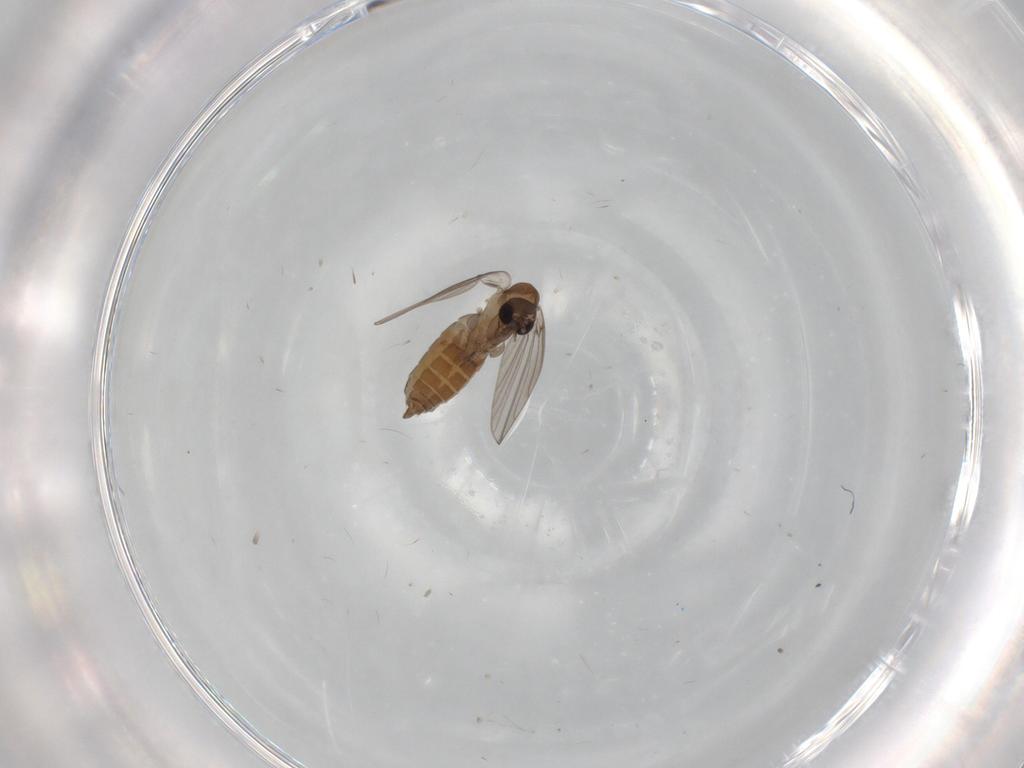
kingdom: Animalia
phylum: Arthropoda
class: Insecta
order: Diptera
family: Psychodidae
